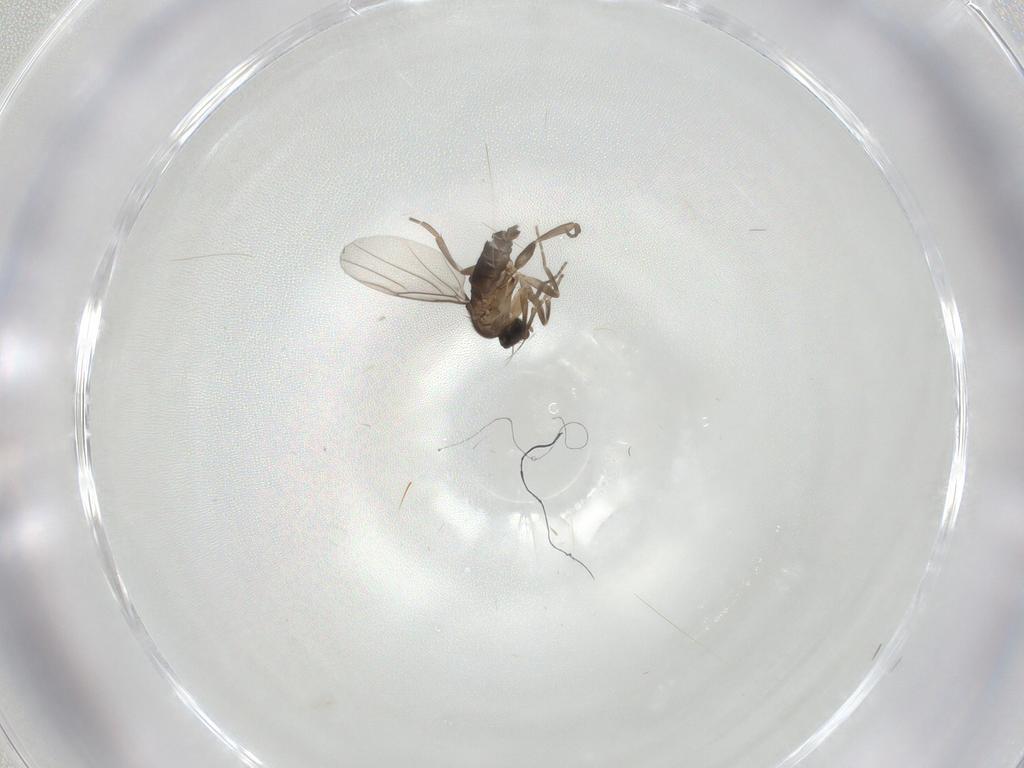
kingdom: Animalia
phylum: Arthropoda
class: Insecta
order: Diptera
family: Phoridae
